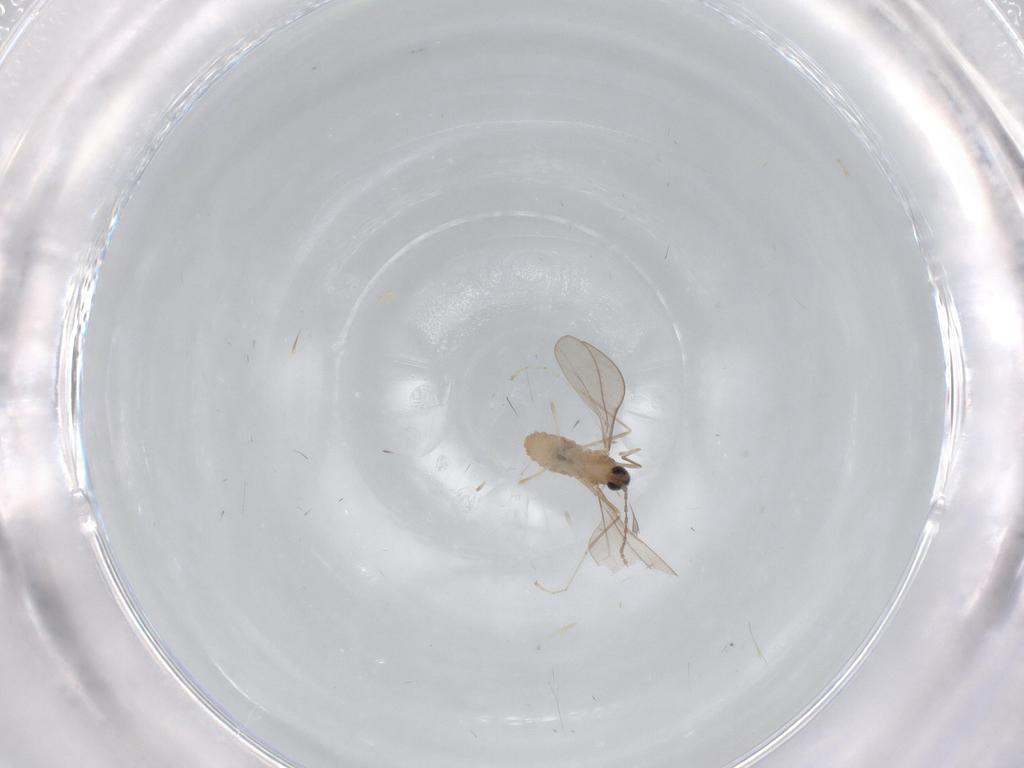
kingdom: Animalia
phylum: Arthropoda
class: Insecta
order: Diptera
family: Cecidomyiidae
